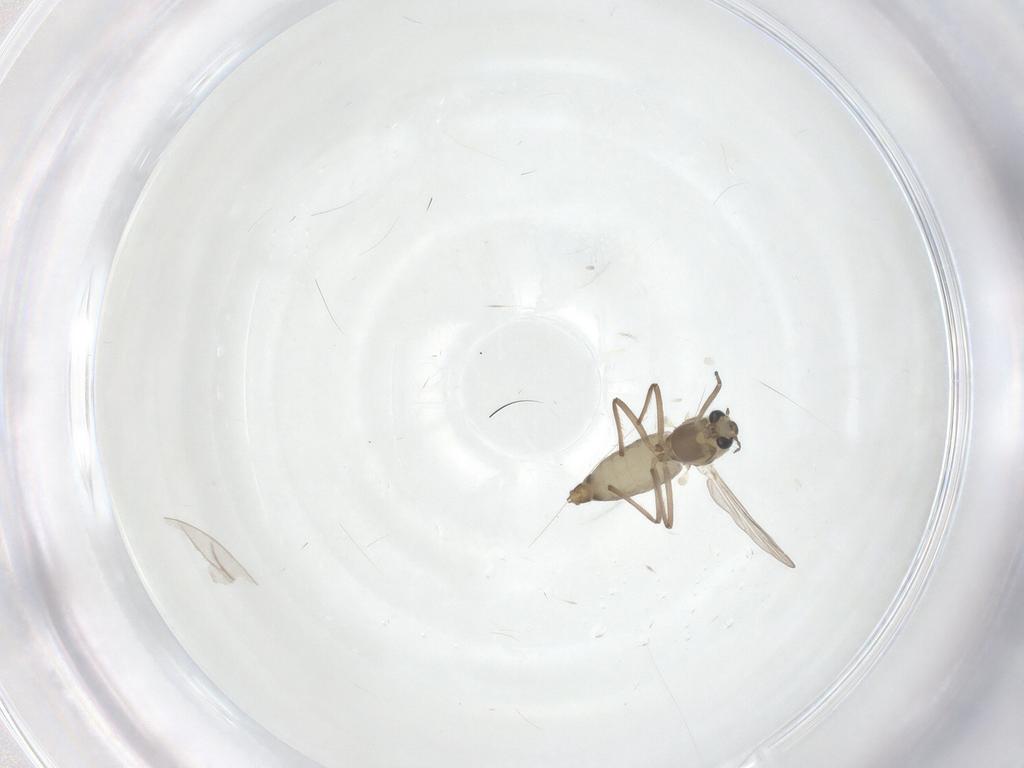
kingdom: Animalia
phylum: Arthropoda
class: Insecta
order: Diptera
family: Chironomidae
